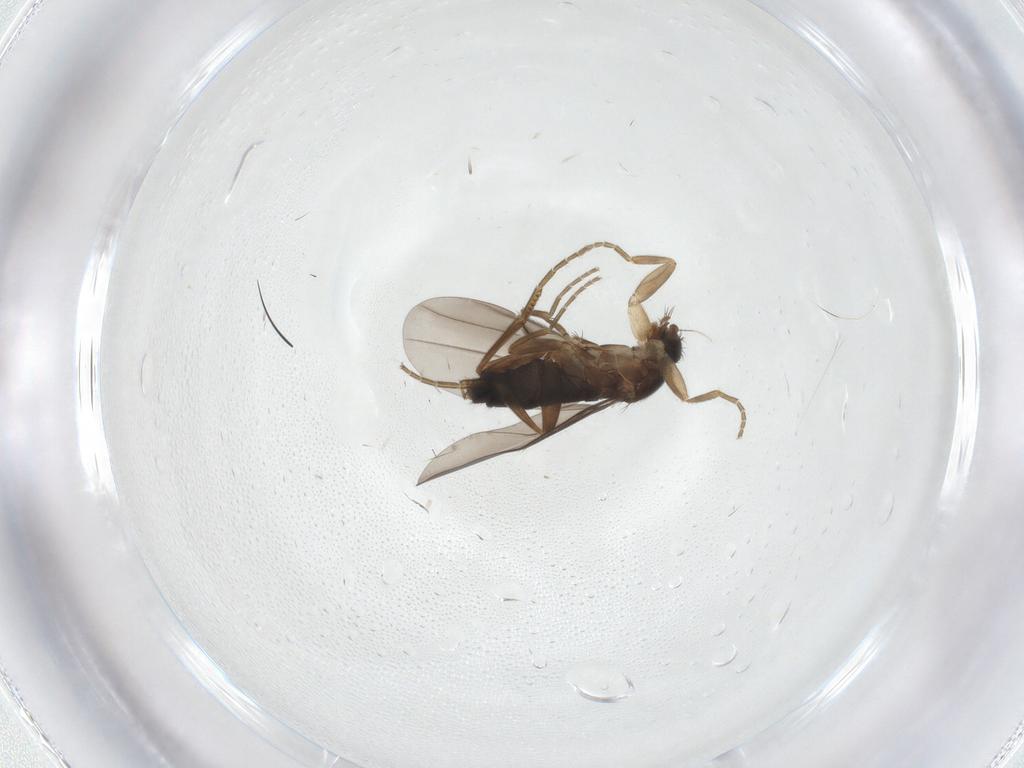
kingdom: Animalia
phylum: Arthropoda
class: Insecta
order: Diptera
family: Phoridae
